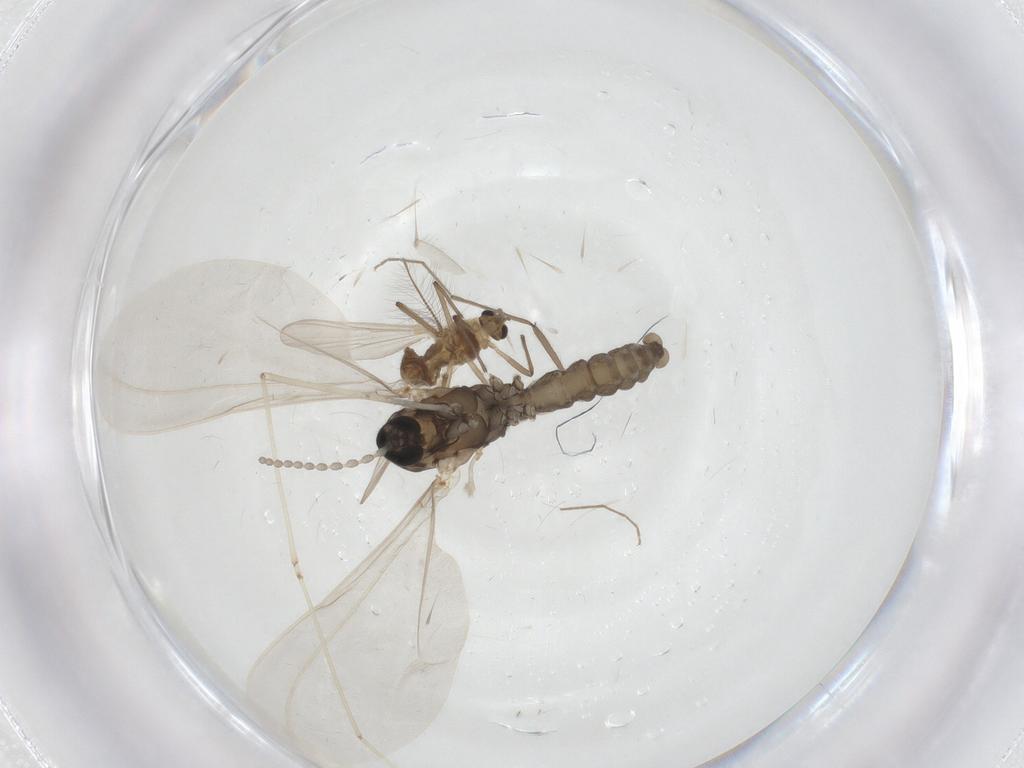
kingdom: Animalia
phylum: Arthropoda
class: Insecta
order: Diptera
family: Chironomidae
